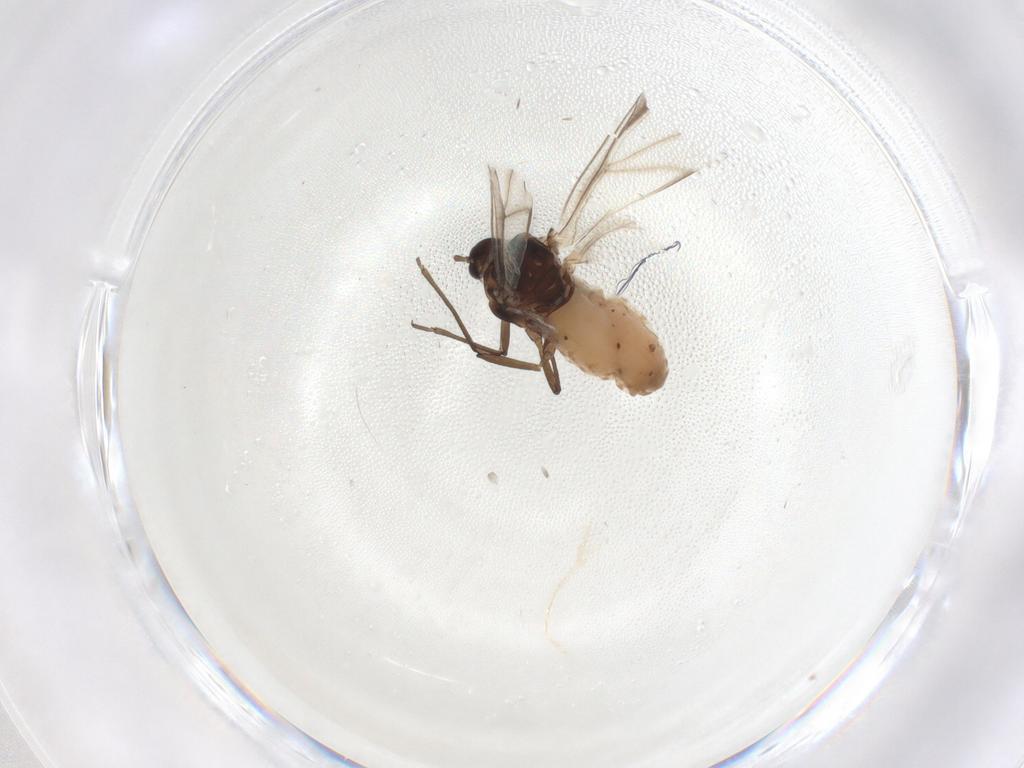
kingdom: Animalia
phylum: Arthropoda
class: Insecta
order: Hemiptera
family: Aphididae
